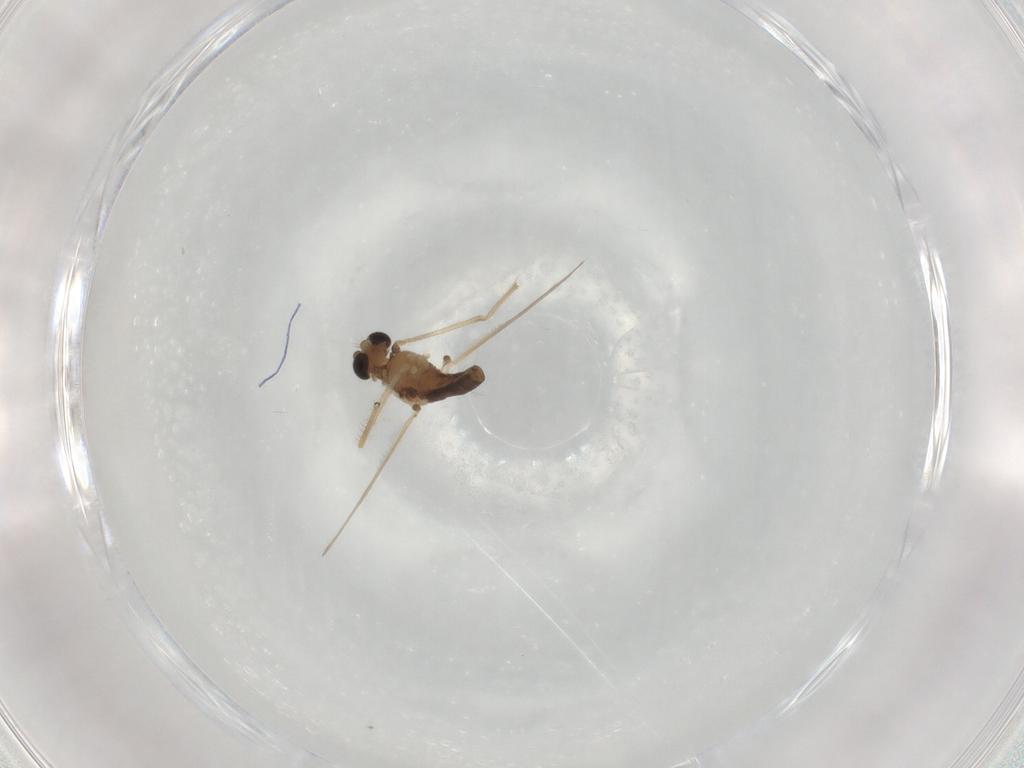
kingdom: Animalia
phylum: Arthropoda
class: Insecta
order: Diptera
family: Chironomidae
